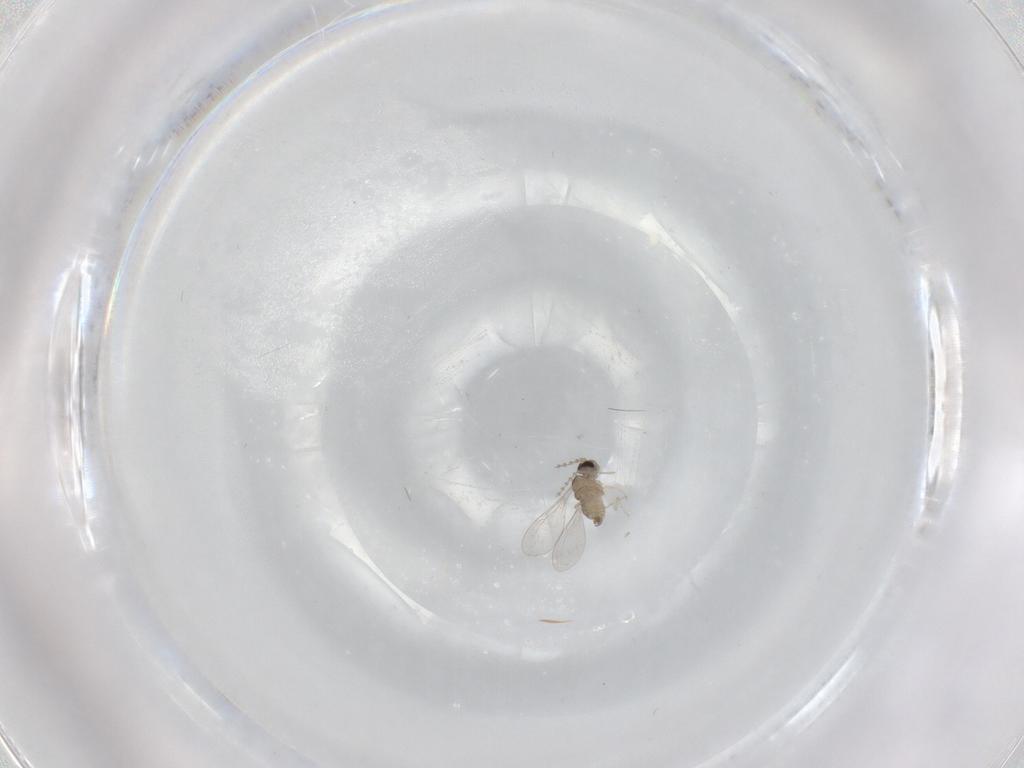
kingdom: Animalia
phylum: Arthropoda
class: Insecta
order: Diptera
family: Cecidomyiidae
